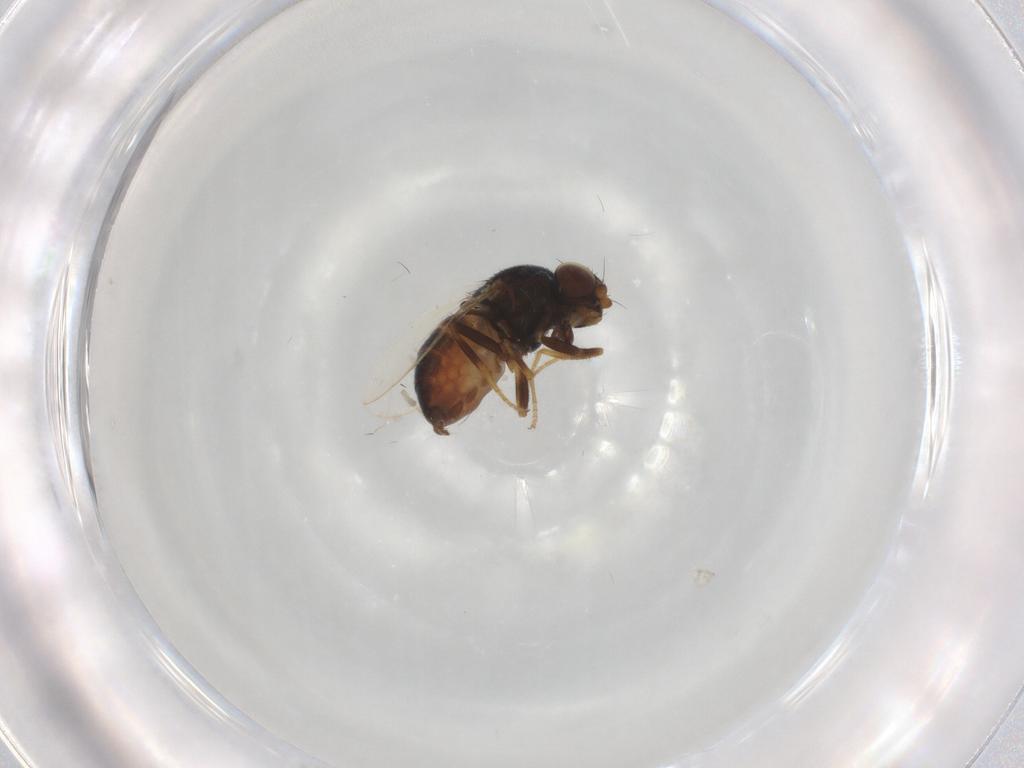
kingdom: Animalia
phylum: Arthropoda
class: Insecta
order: Diptera
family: Chloropidae
